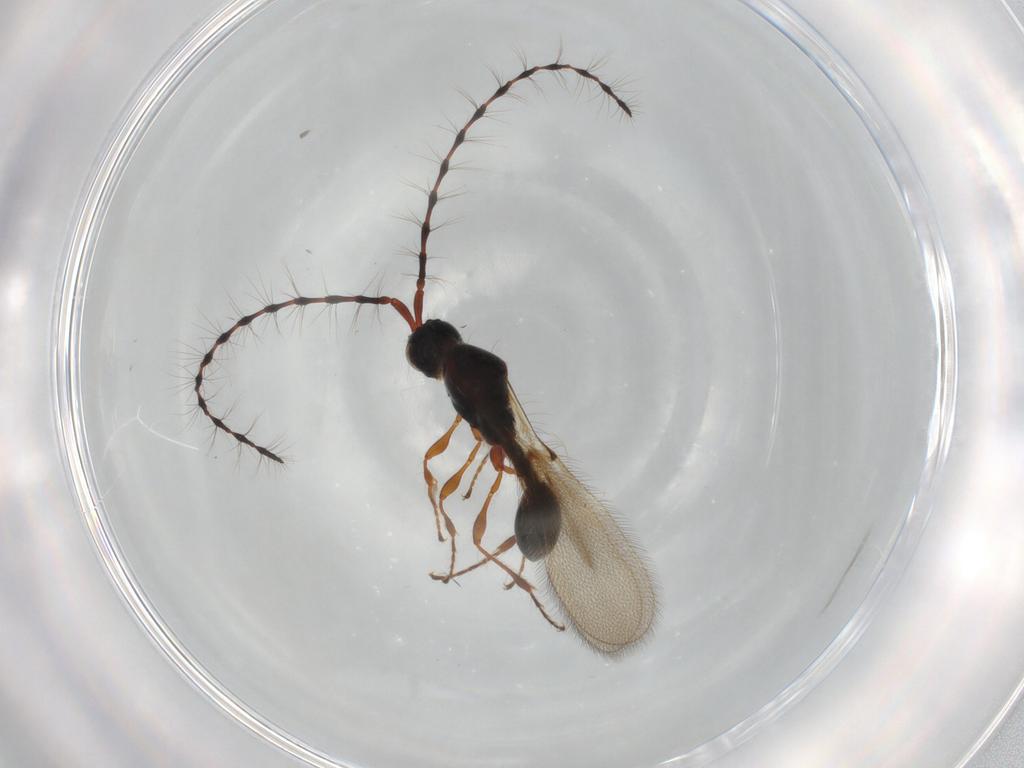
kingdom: Animalia
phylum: Arthropoda
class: Insecta
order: Hymenoptera
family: Diapriidae
